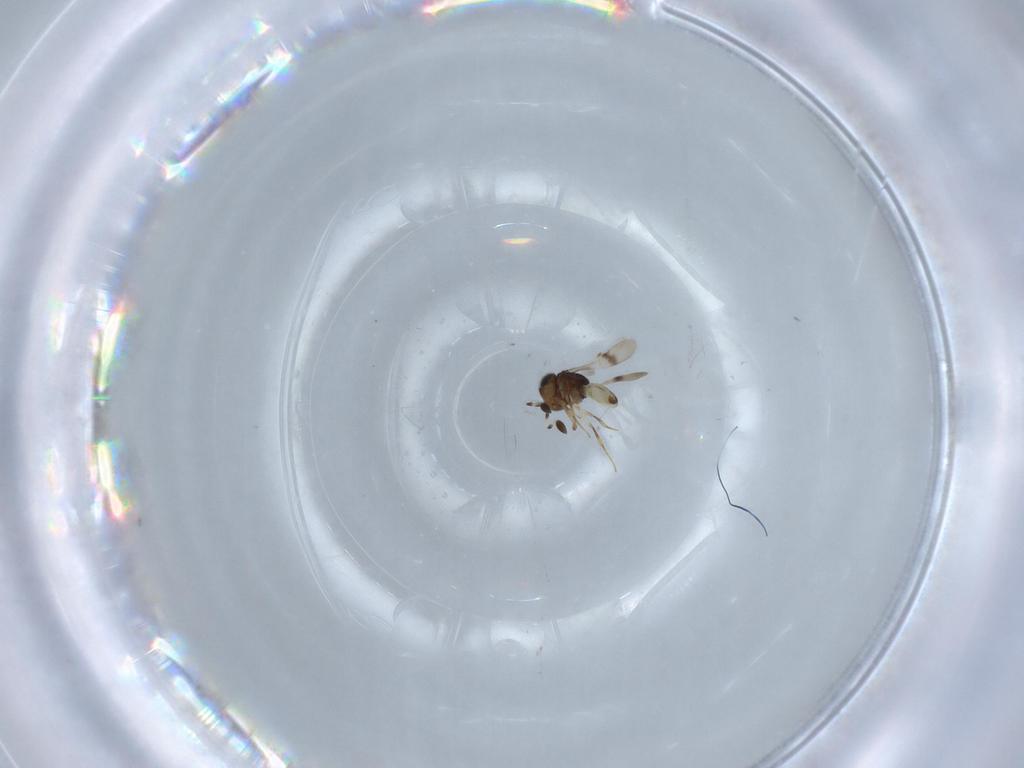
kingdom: Animalia
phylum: Arthropoda
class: Arachnida
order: Araneae
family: Pholcidae
